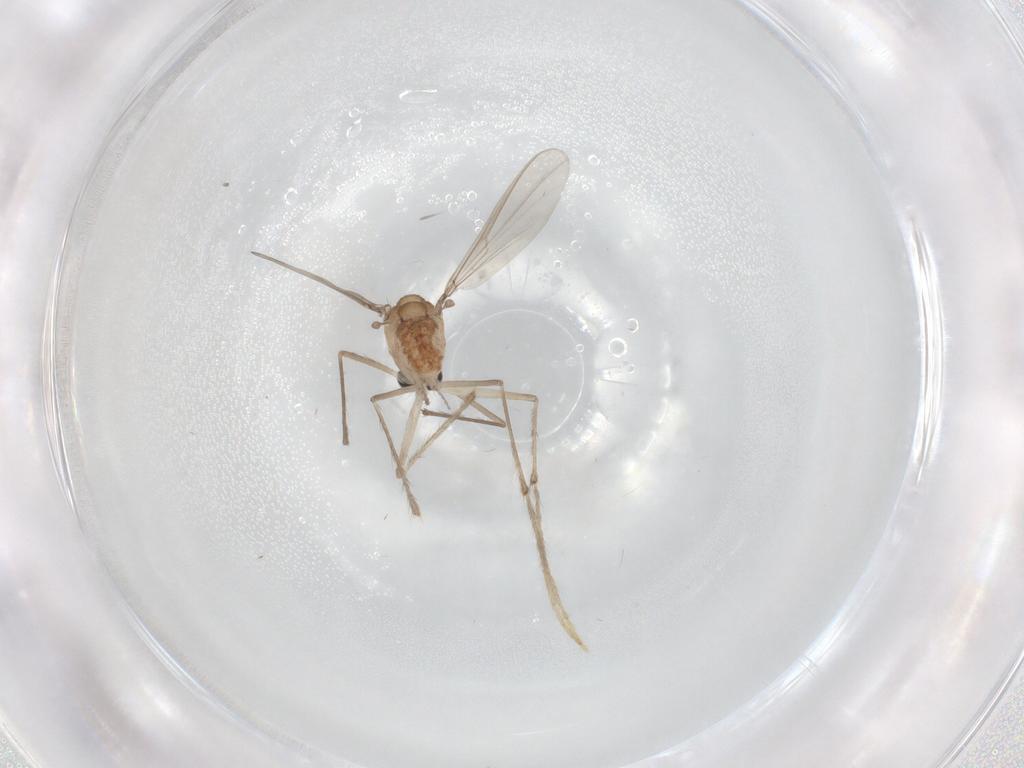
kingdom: Animalia
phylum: Arthropoda
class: Insecta
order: Diptera
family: Chironomidae
